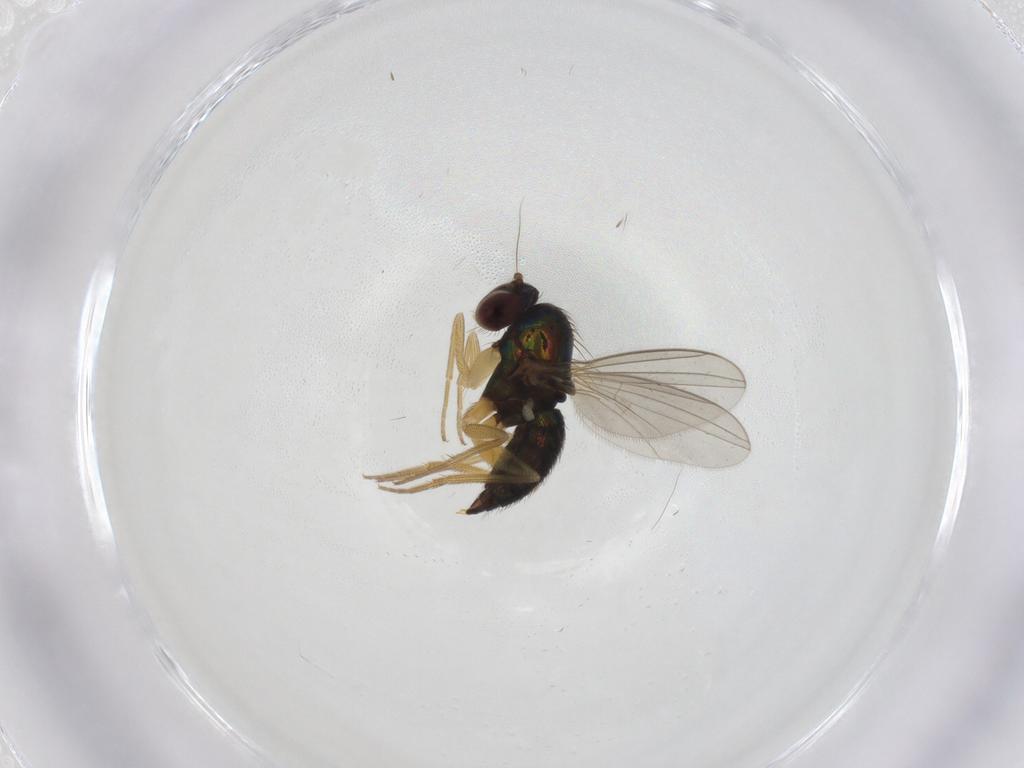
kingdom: Animalia
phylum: Arthropoda
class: Insecta
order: Diptera
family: Dolichopodidae
